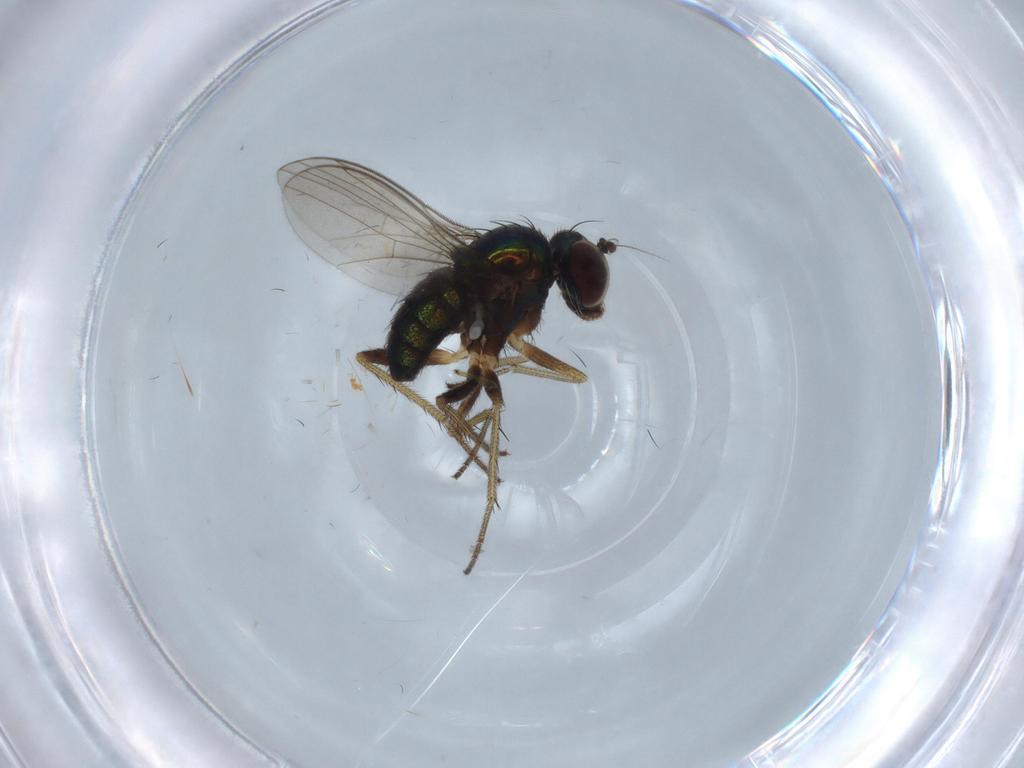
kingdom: Animalia
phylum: Arthropoda
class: Insecta
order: Diptera
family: Dolichopodidae
